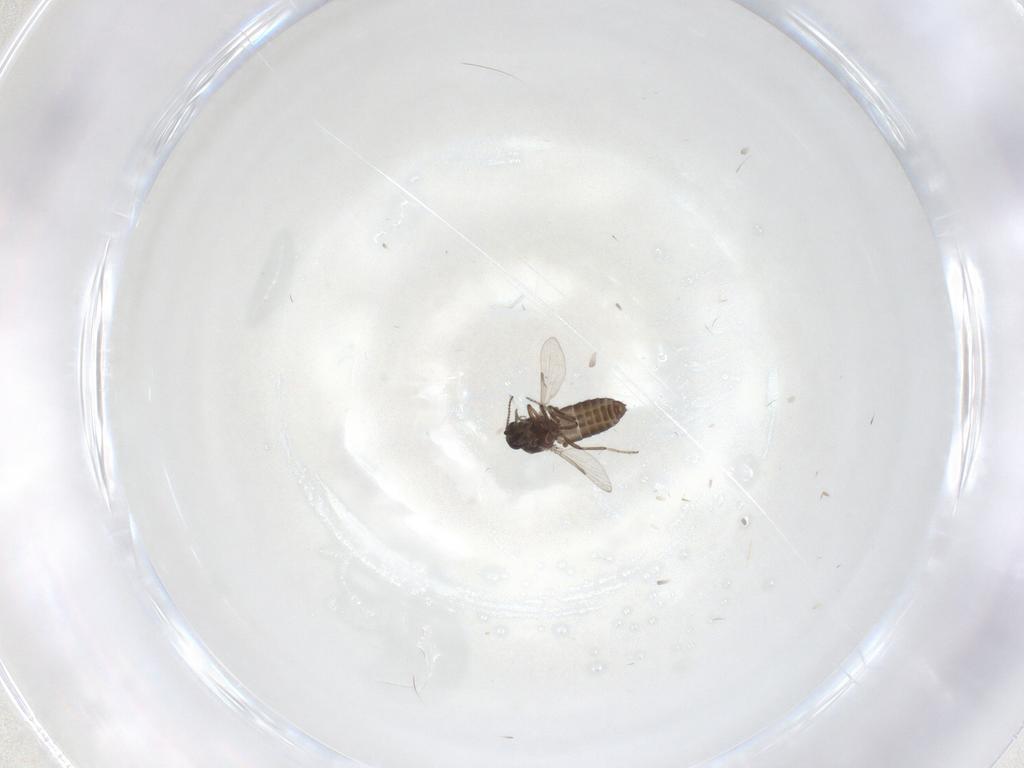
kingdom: Animalia
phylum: Arthropoda
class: Insecta
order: Diptera
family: Ceratopogonidae
